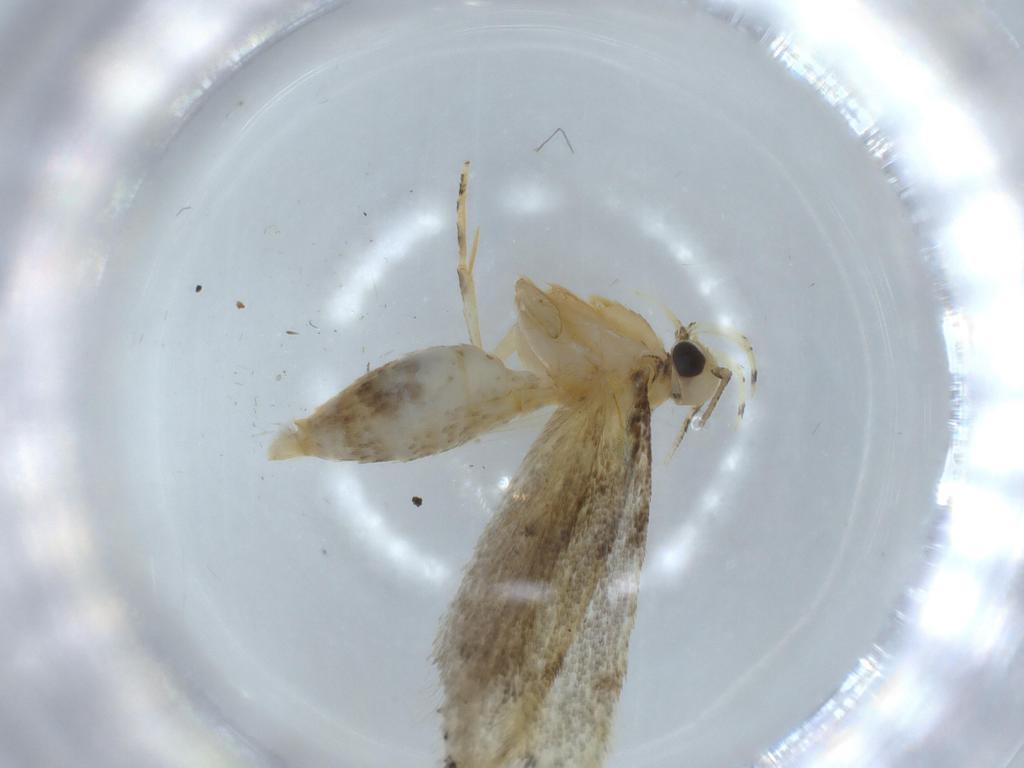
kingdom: Animalia
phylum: Arthropoda
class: Insecta
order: Lepidoptera
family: Autostichidae
